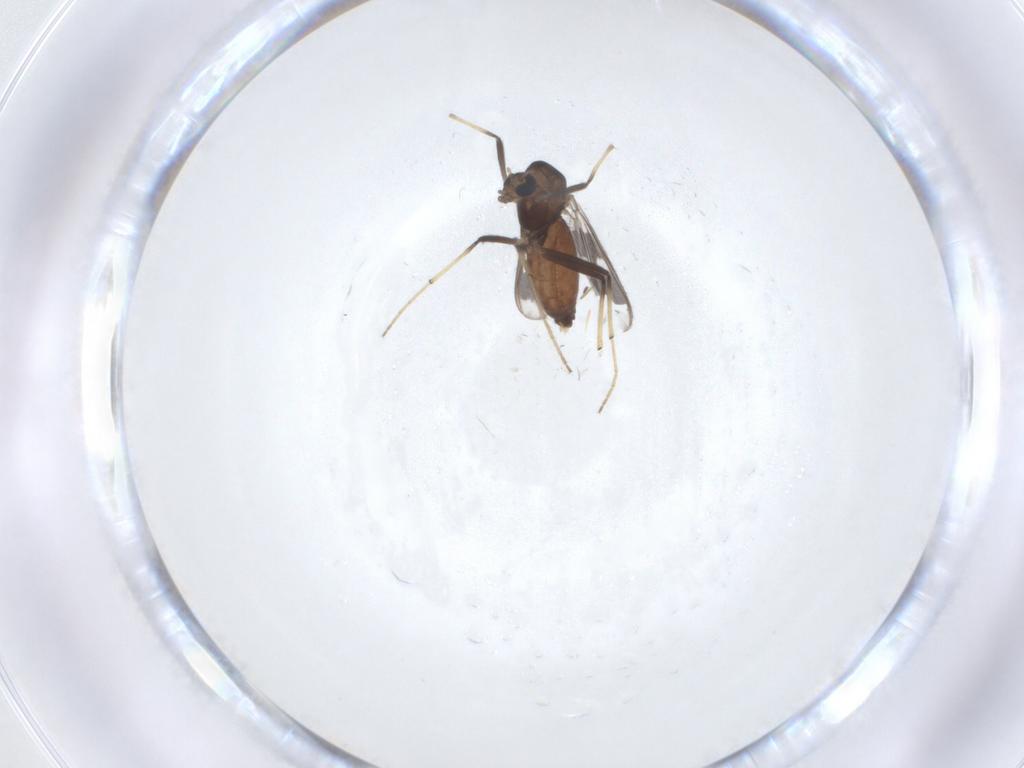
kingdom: Animalia
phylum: Arthropoda
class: Insecta
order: Diptera
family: Chironomidae
